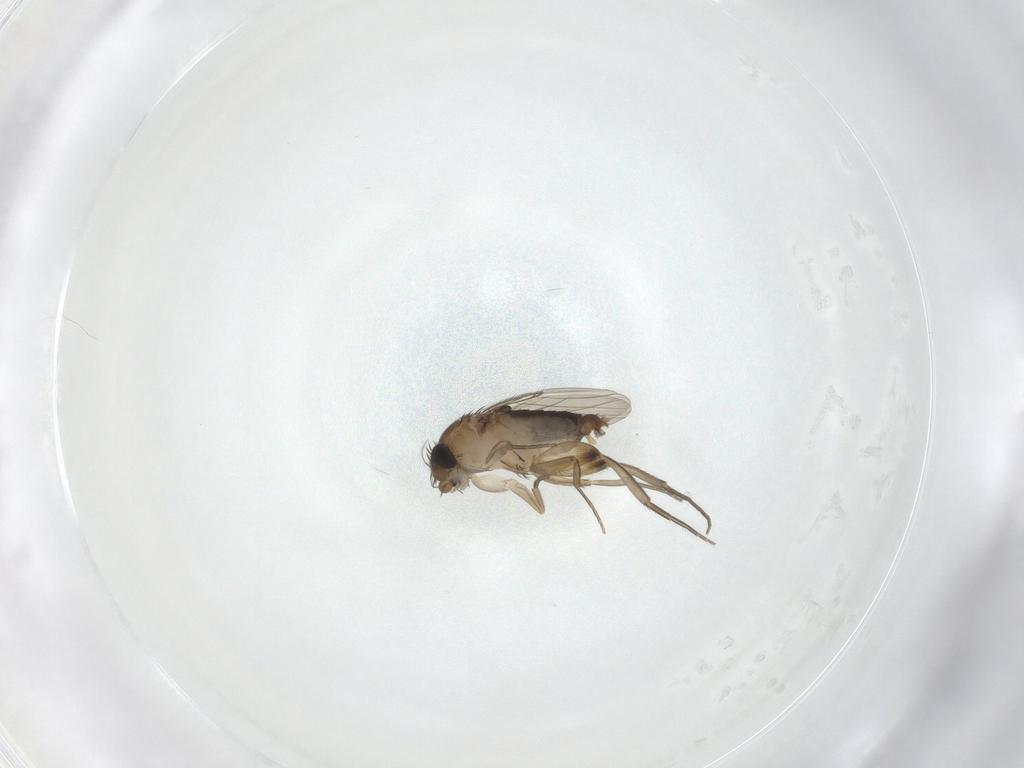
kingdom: Animalia
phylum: Arthropoda
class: Insecta
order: Diptera
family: Phoridae
